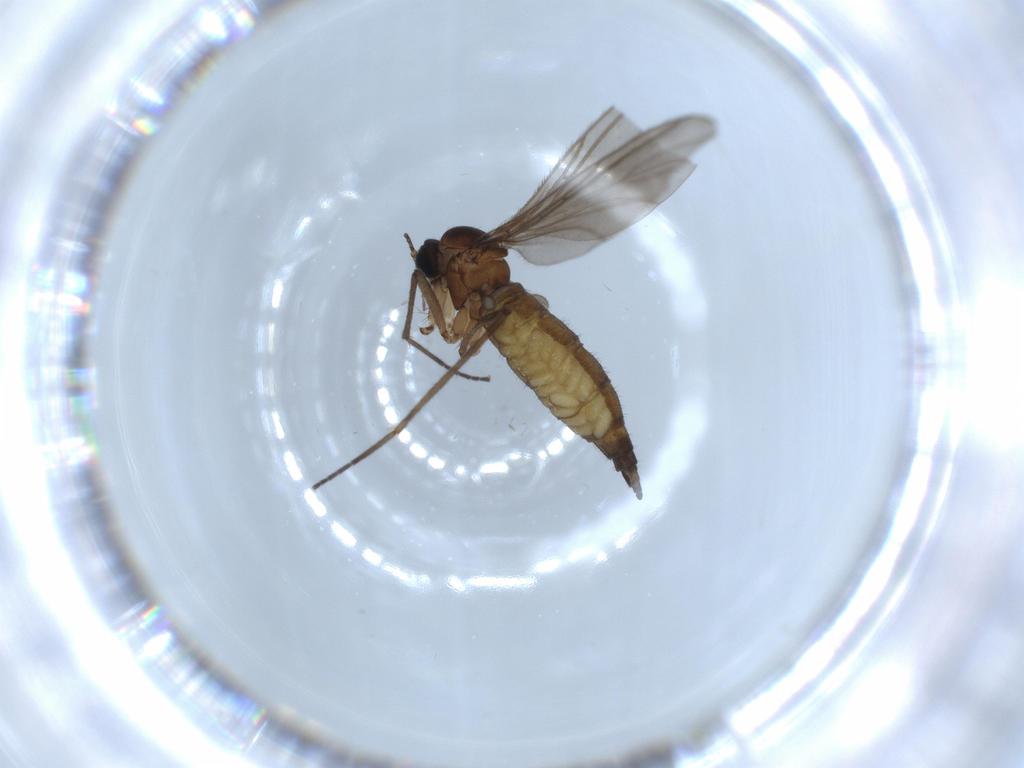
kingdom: Animalia
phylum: Arthropoda
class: Insecta
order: Diptera
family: Sciaridae
